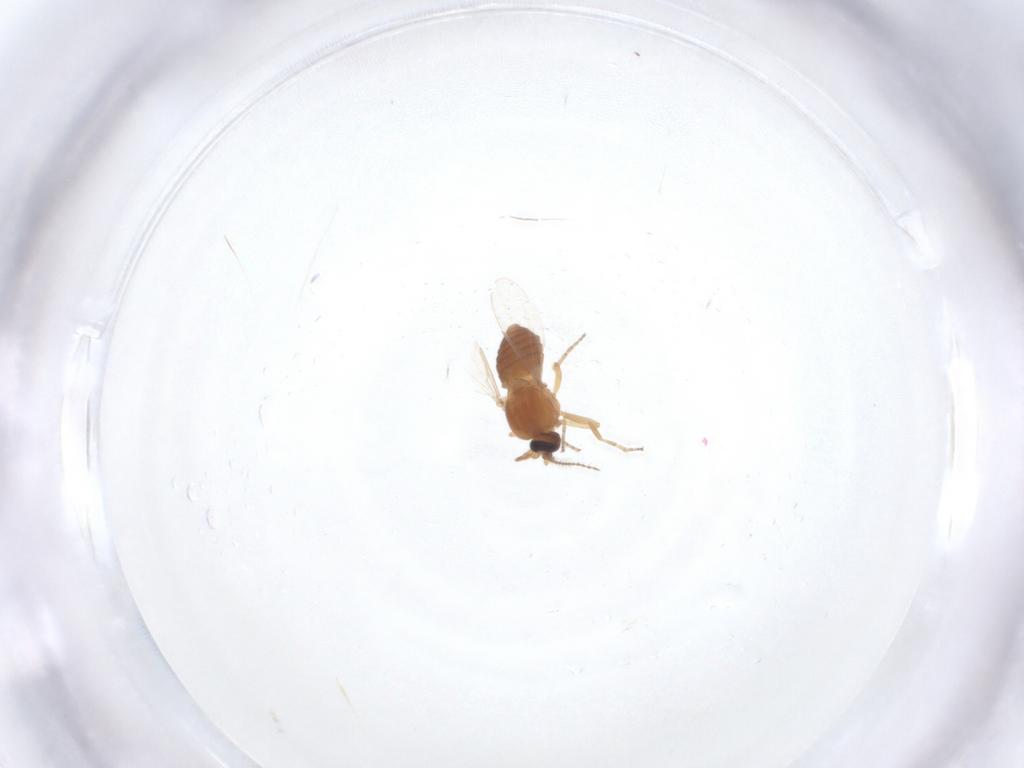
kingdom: Animalia
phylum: Arthropoda
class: Insecta
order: Diptera
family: Ceratopogonidae
